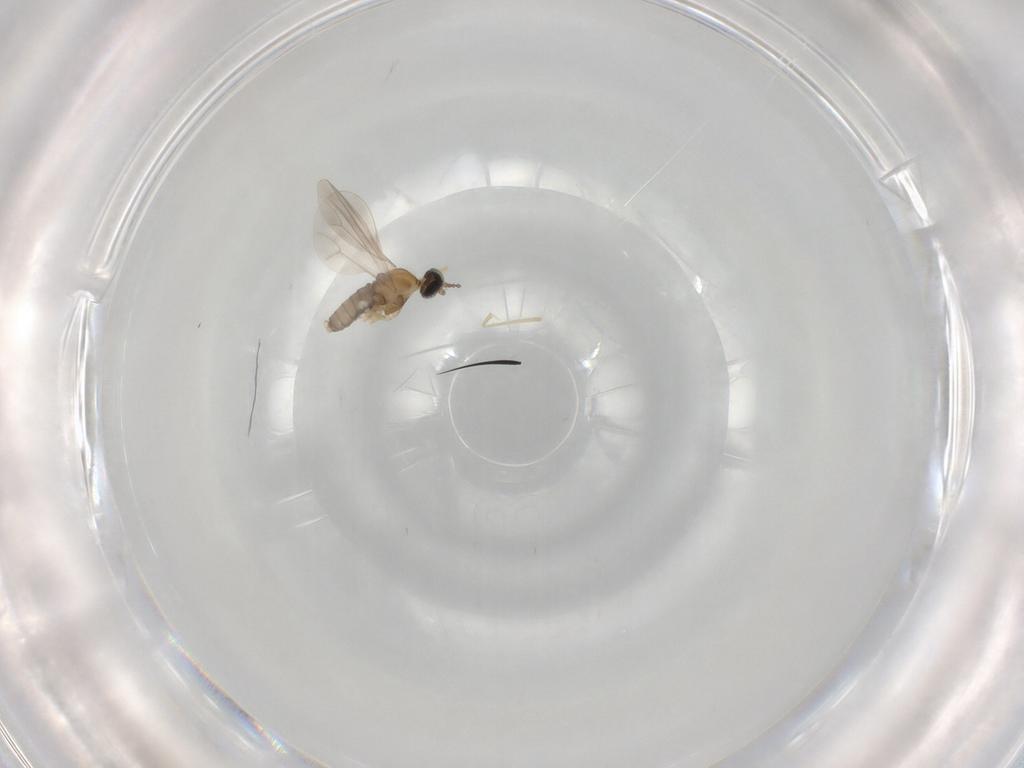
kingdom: Animalia
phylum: Arthropoda
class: Insecta
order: Diptera
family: Cecidomyiidae
